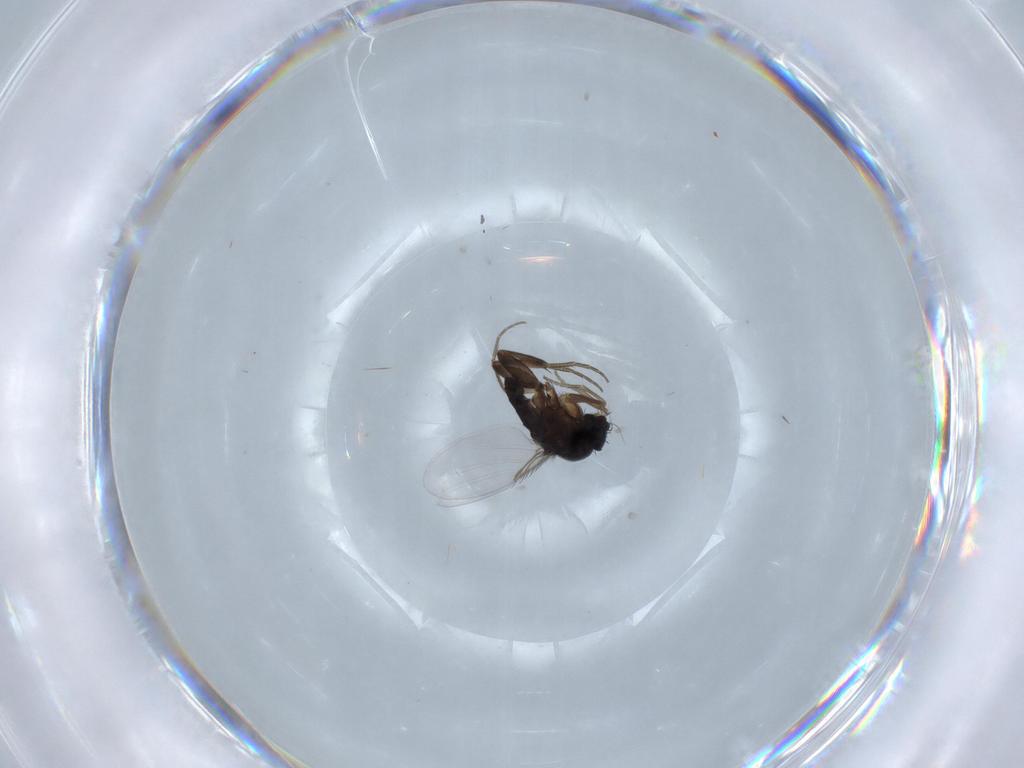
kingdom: Animalia
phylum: Arthropoda
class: Insecta
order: Diptera
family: Phoridae
